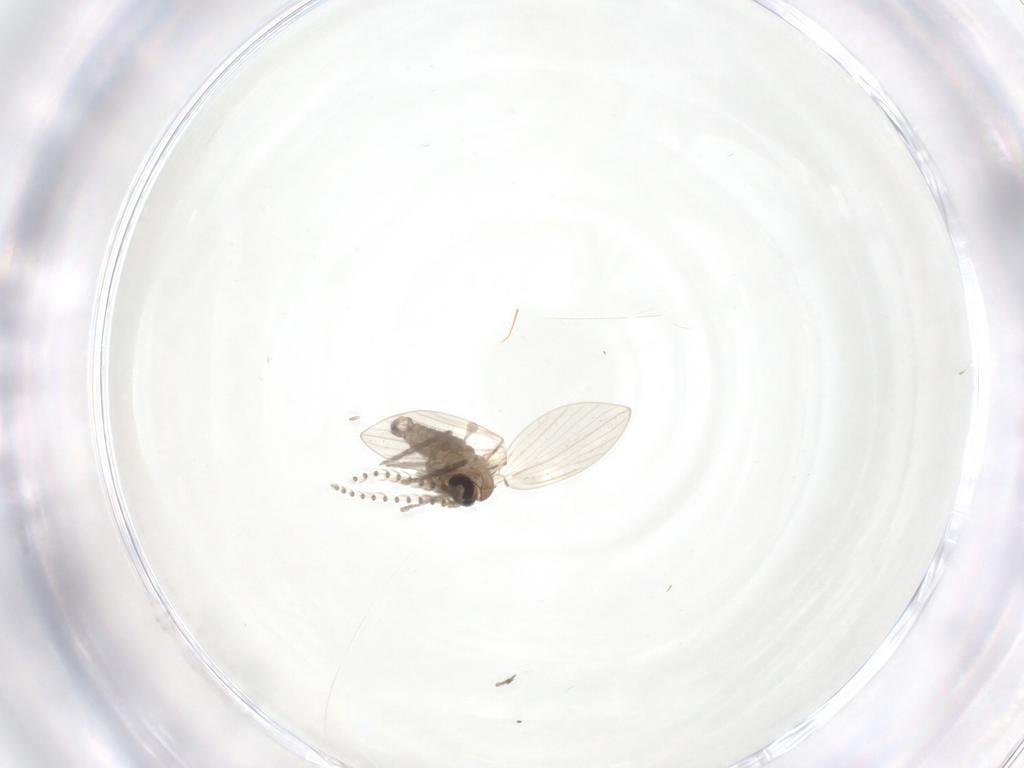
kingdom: Animalia
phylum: Arthropoda
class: Insecta
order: Diptera
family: Psychodidae
